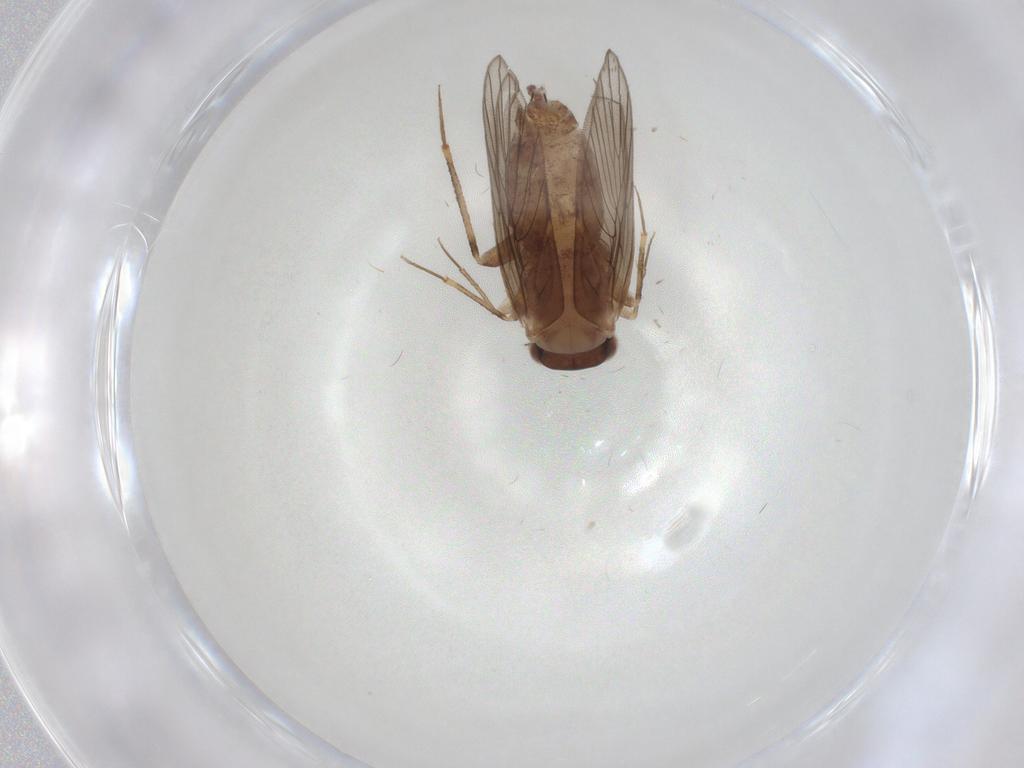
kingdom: Animalia
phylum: Arthropoda
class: Insecta
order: Psocodea
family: Lepidopsocidae
